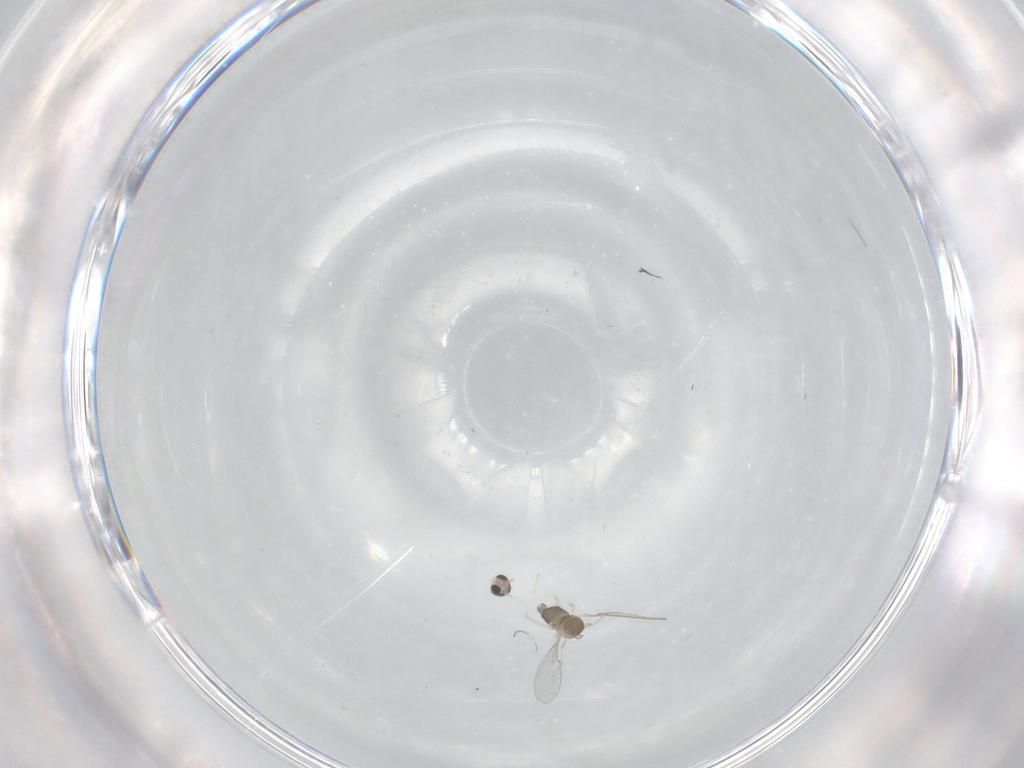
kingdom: Animalia
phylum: Arthropoda
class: Insecta
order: Diptera
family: Cecidomyiidae
